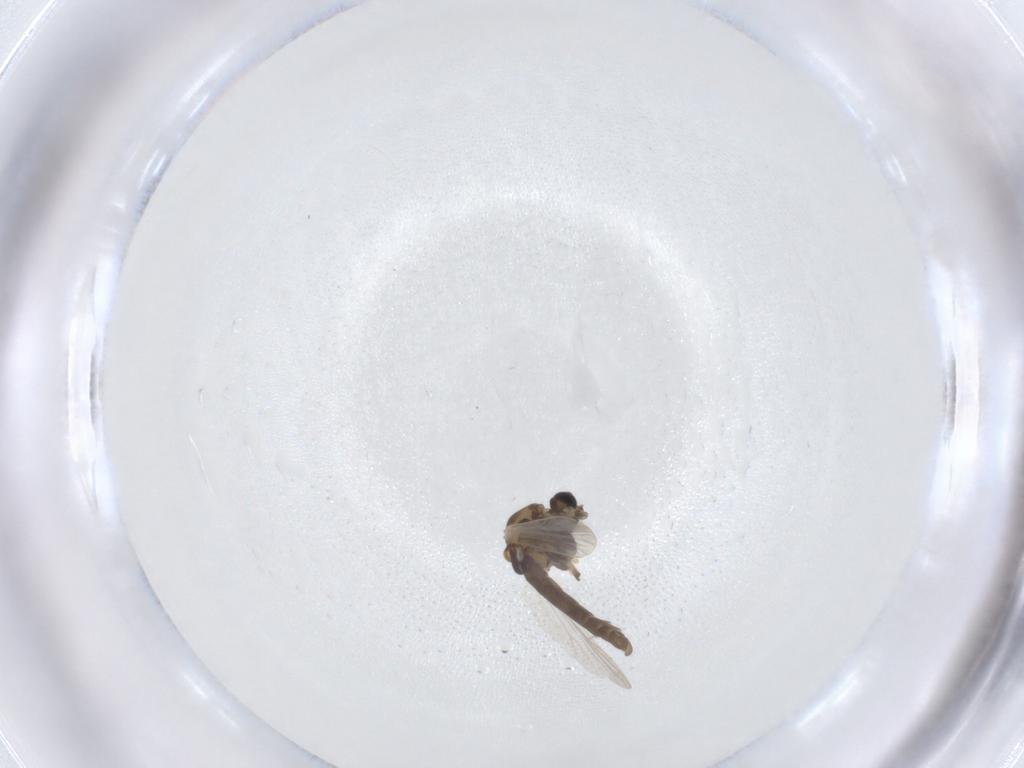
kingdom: Animalia
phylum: Arthropoda
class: Insecta
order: Diptera
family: Chironomidae
